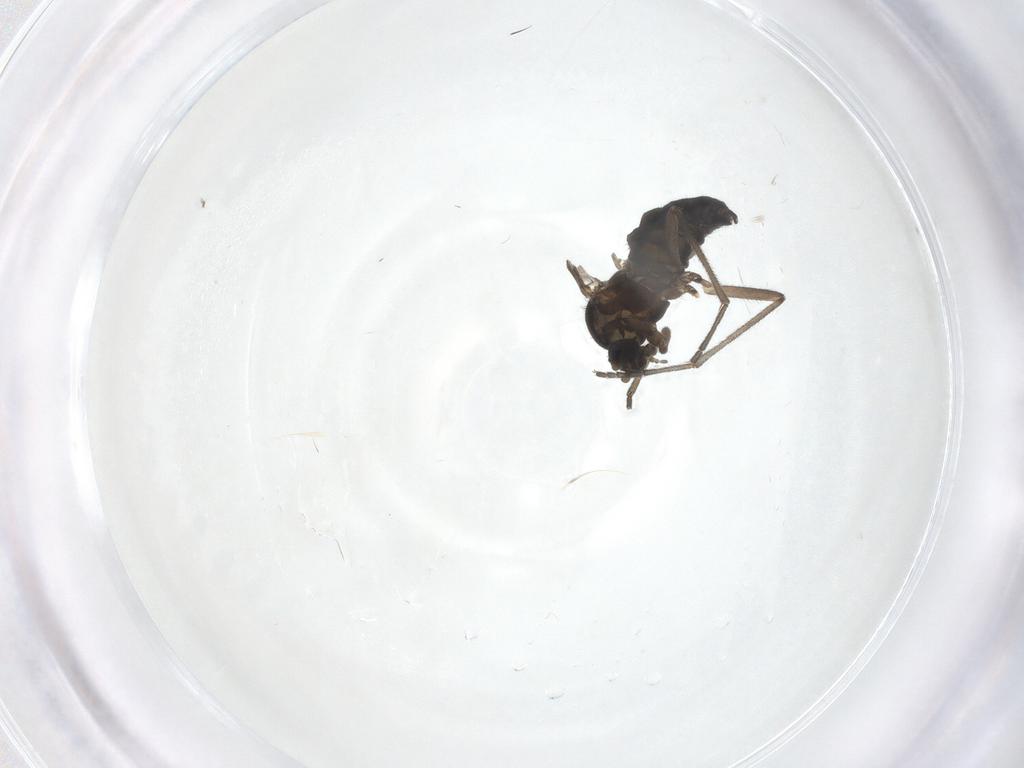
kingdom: Animalia
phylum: Arthropoda
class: Insecta
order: Diptera
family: Sciaridae
